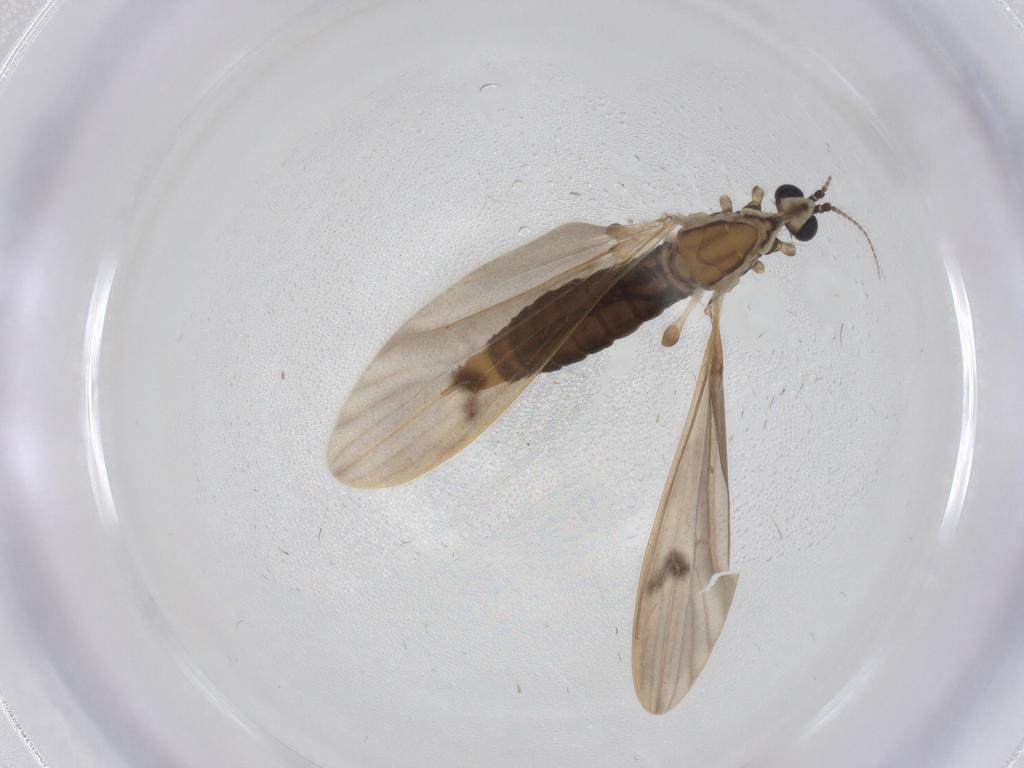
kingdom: Animalia
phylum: Arthropoda
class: Insecta
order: Diptera
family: Limoniidae
